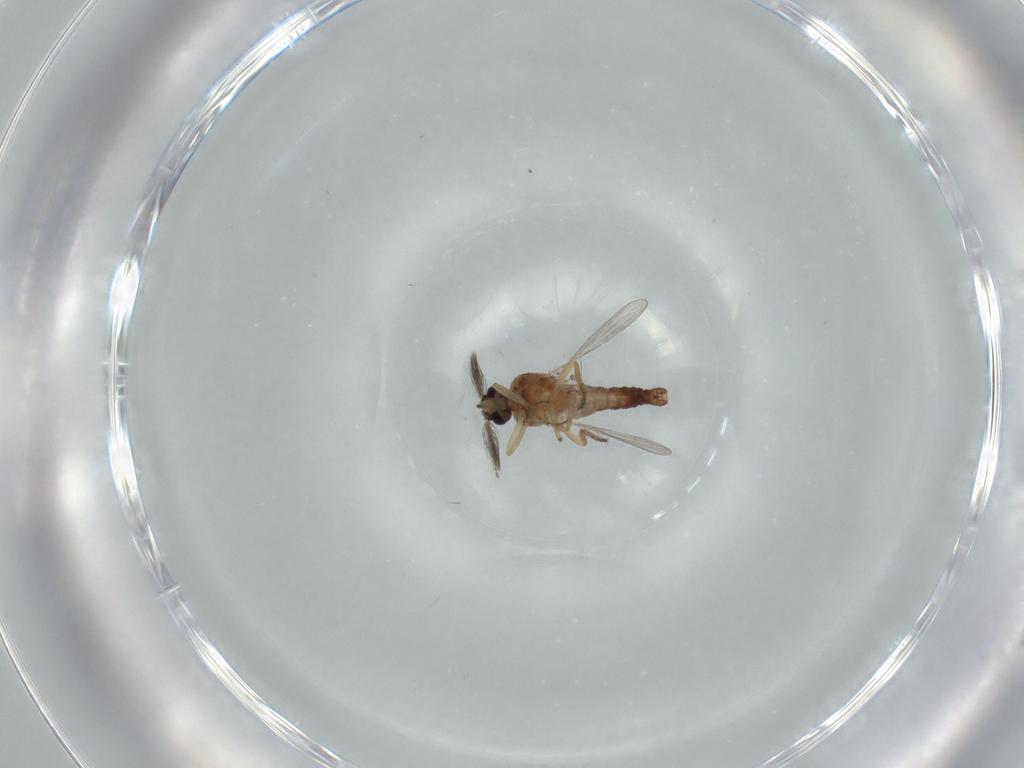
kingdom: Animalia
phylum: Arthropoda
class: Insecta
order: Diptera
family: Ceratopogonidae
